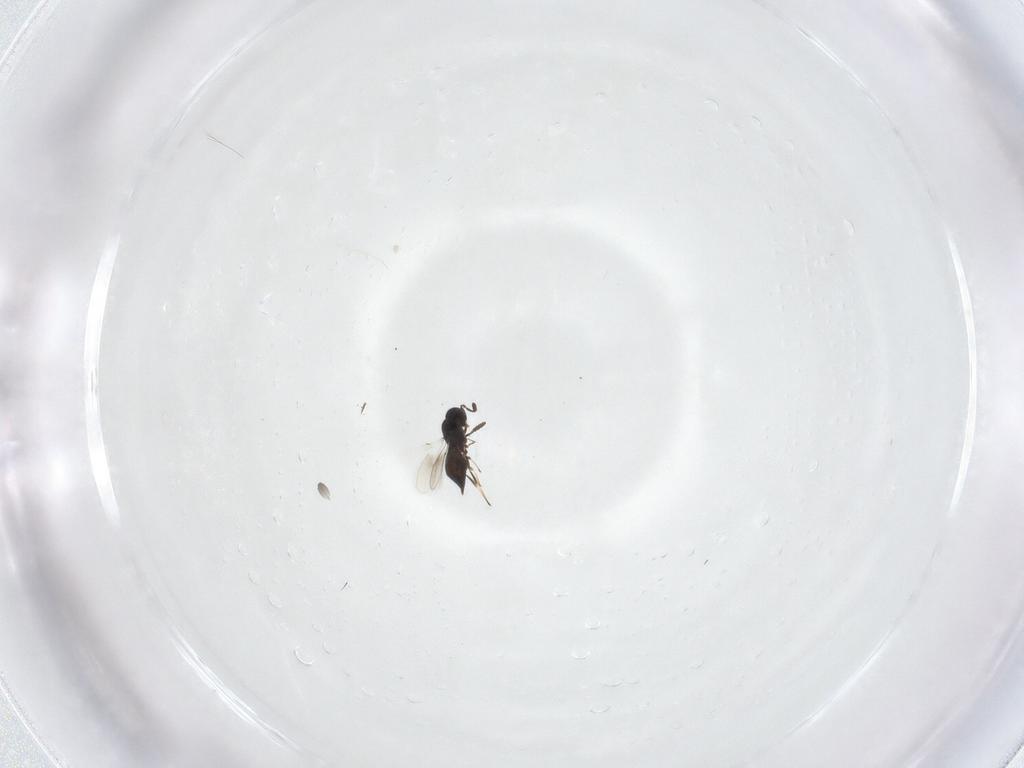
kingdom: Animalia
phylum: Arthropoda
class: Insecta
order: Hymenoptera
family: Scelionidae
